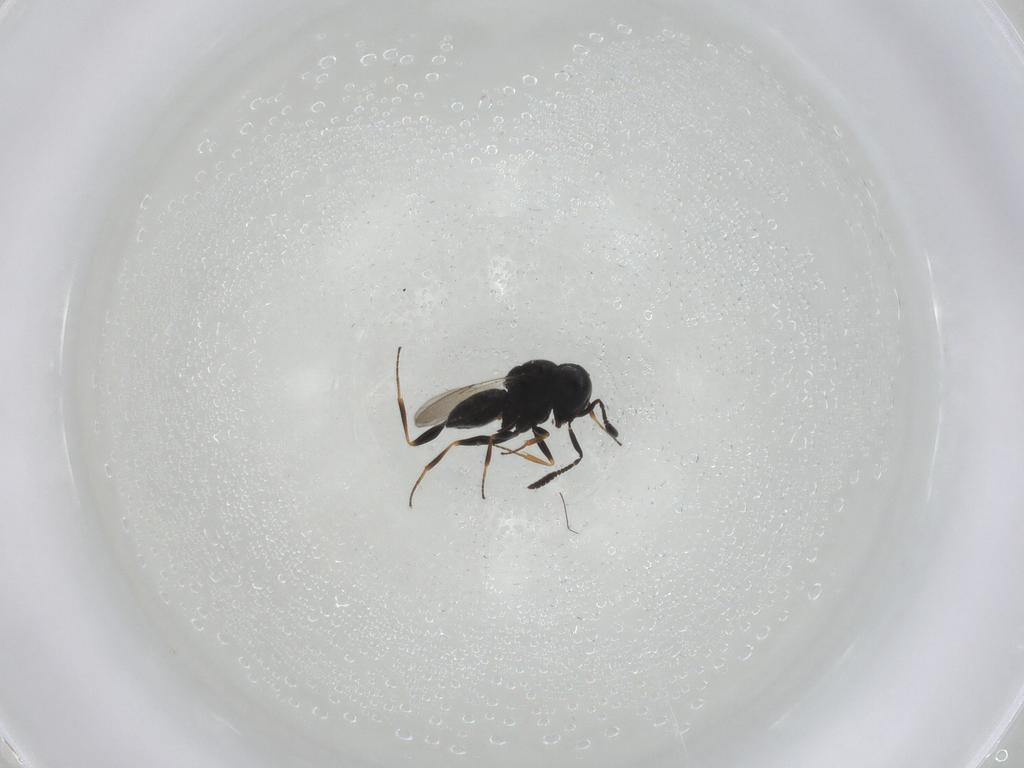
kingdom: Animalia
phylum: Arthropoda
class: Insecta
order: Hymenoptera
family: Scelionidae
